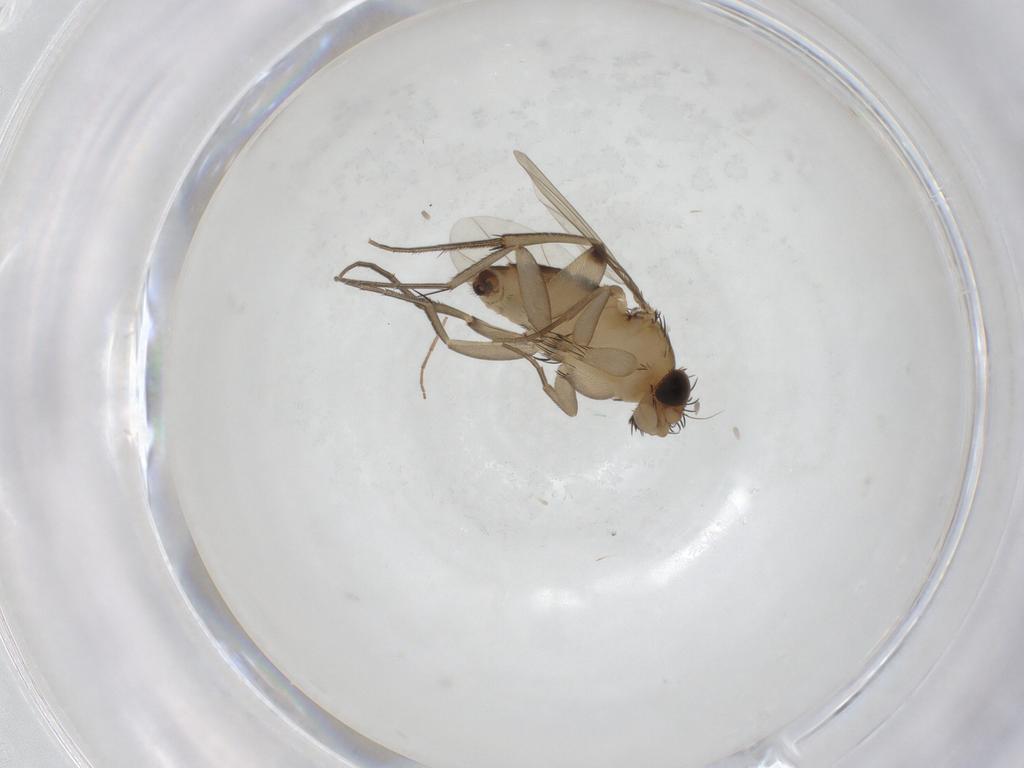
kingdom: Animalia
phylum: Arthropoda
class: Insecta
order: Diptera
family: Phoridae
